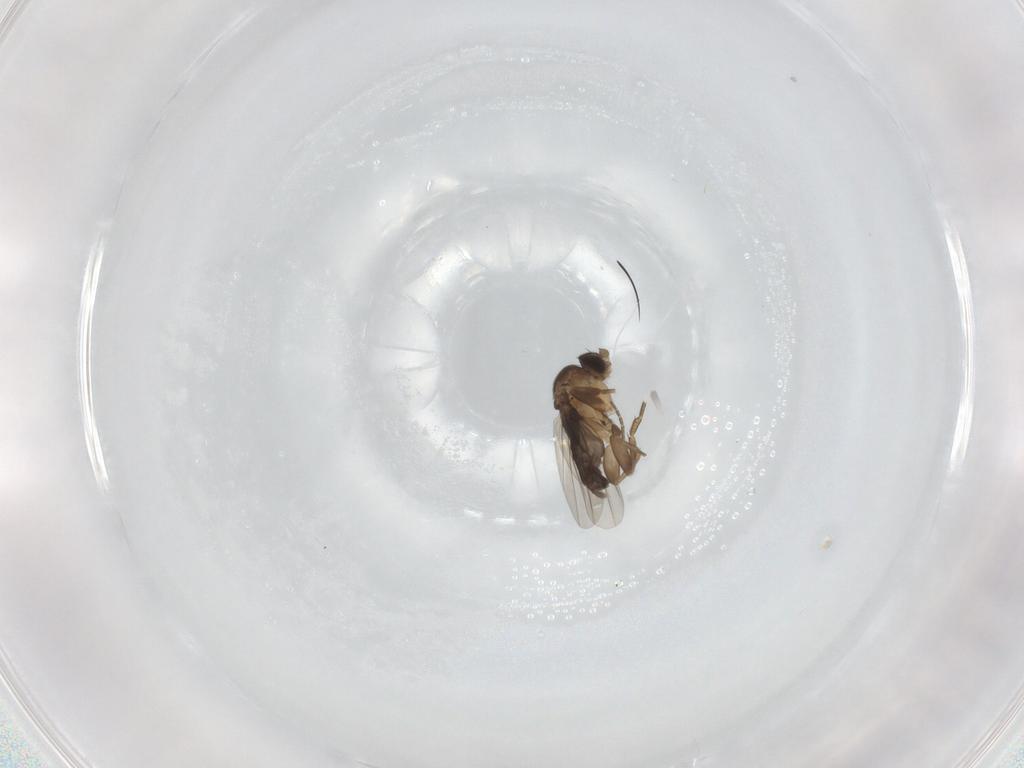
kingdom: Animalia
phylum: Arthropoda
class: Insecta
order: Diptera
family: Phoridae
